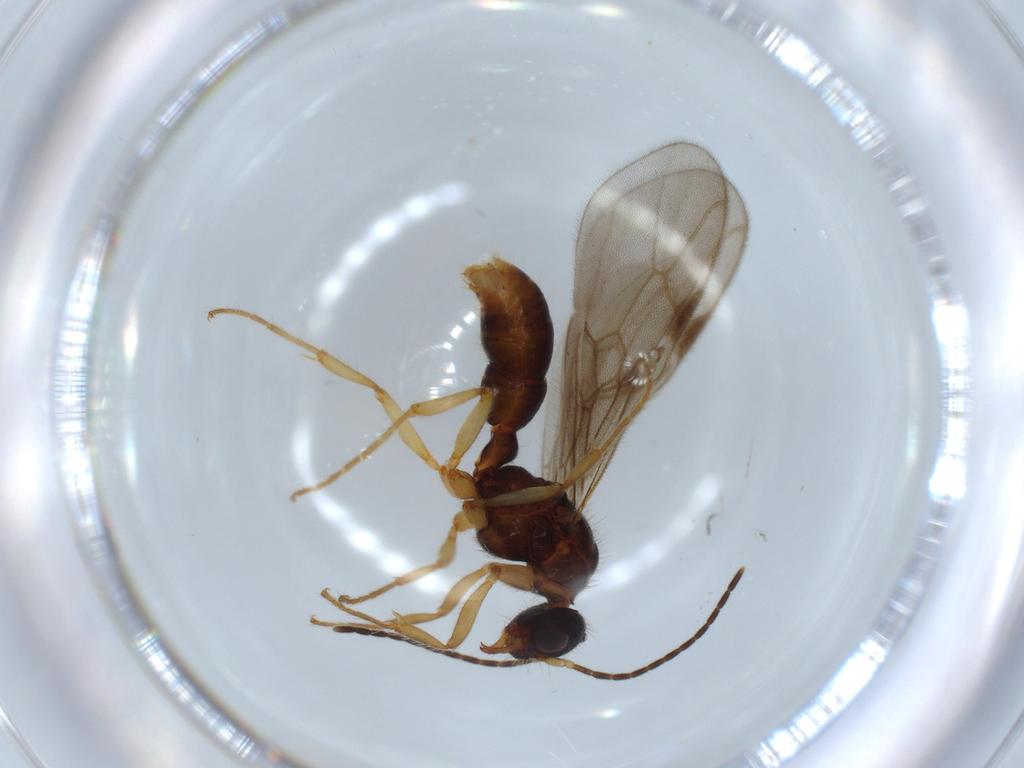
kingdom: Animalia
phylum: Arthropoda
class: Insecta
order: Hymenoptera
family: Formicidae
